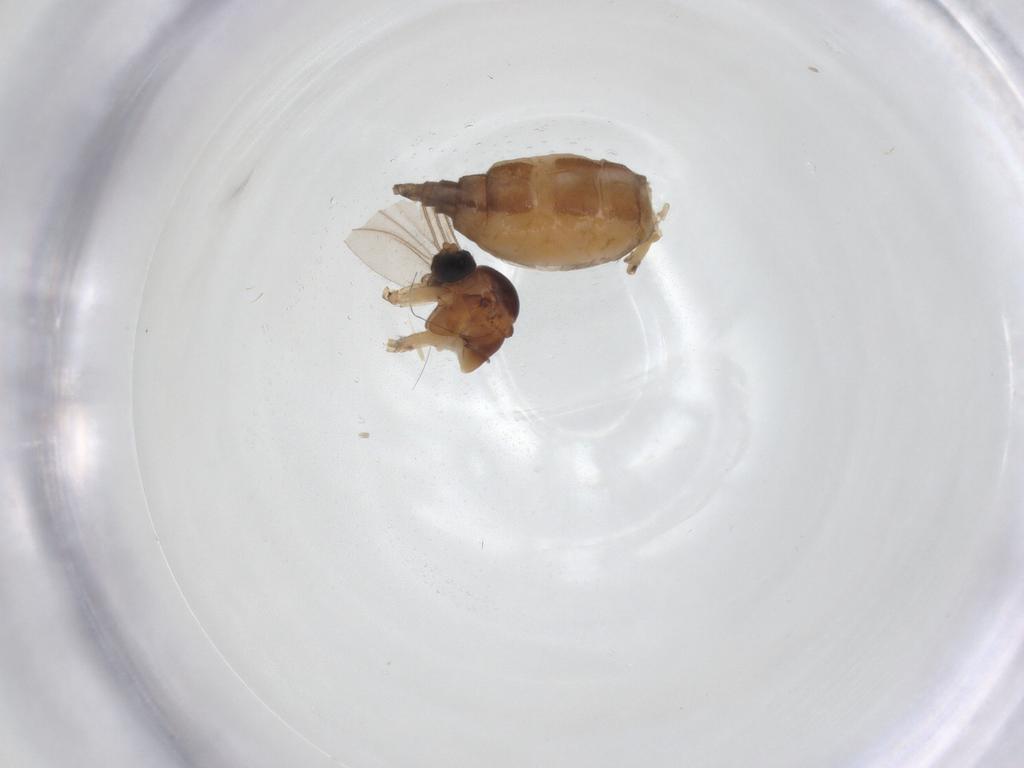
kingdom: Animalia
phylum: Arthropoda
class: Insecta
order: Diptera
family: Sciaridae
